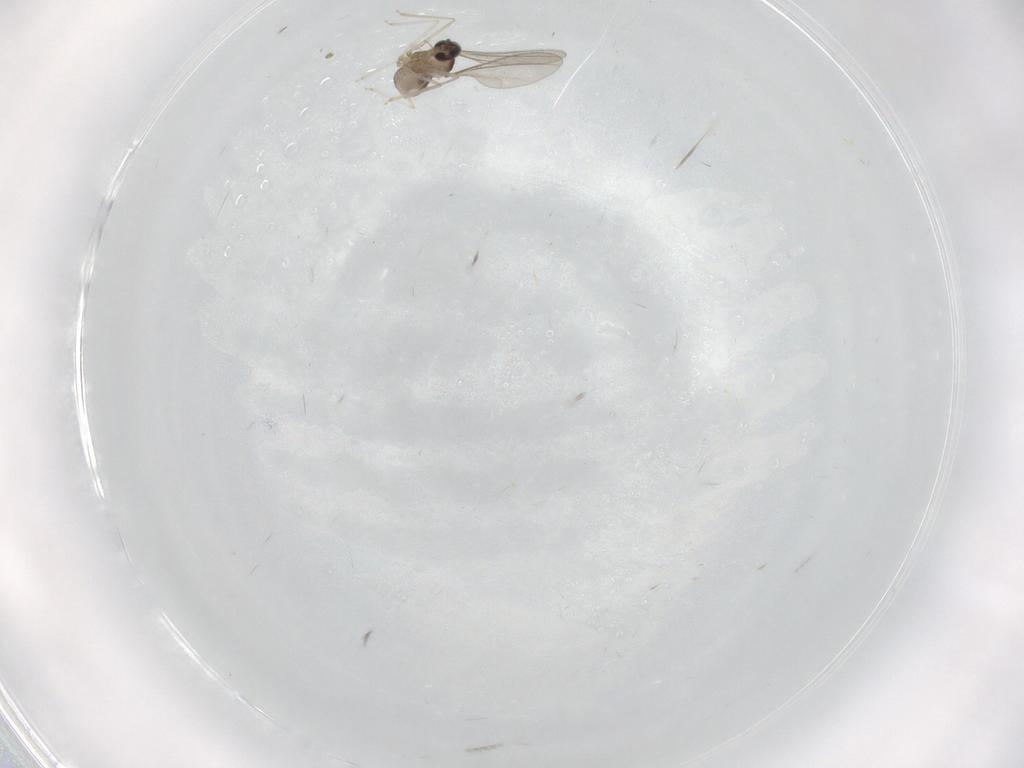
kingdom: Animalia
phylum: Arthropoda
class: Insecta
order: Diptera
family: Cecidomyiidae
